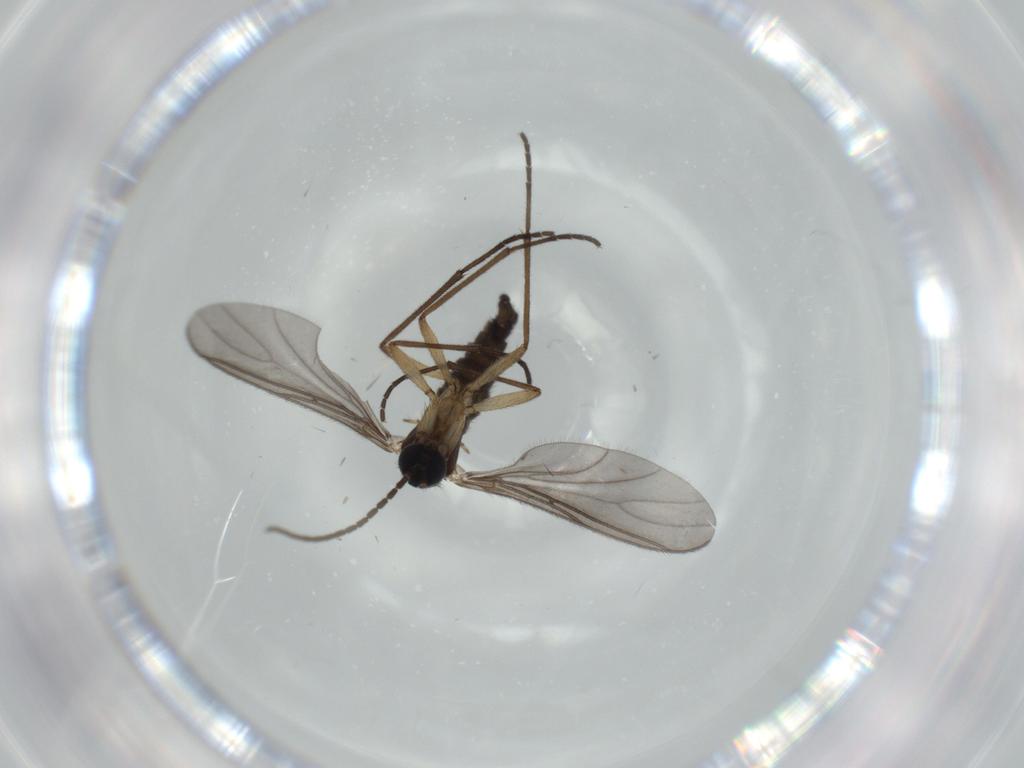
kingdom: Animalia
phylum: Arthropoda
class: Insecta
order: Diptera
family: Sciaridae
